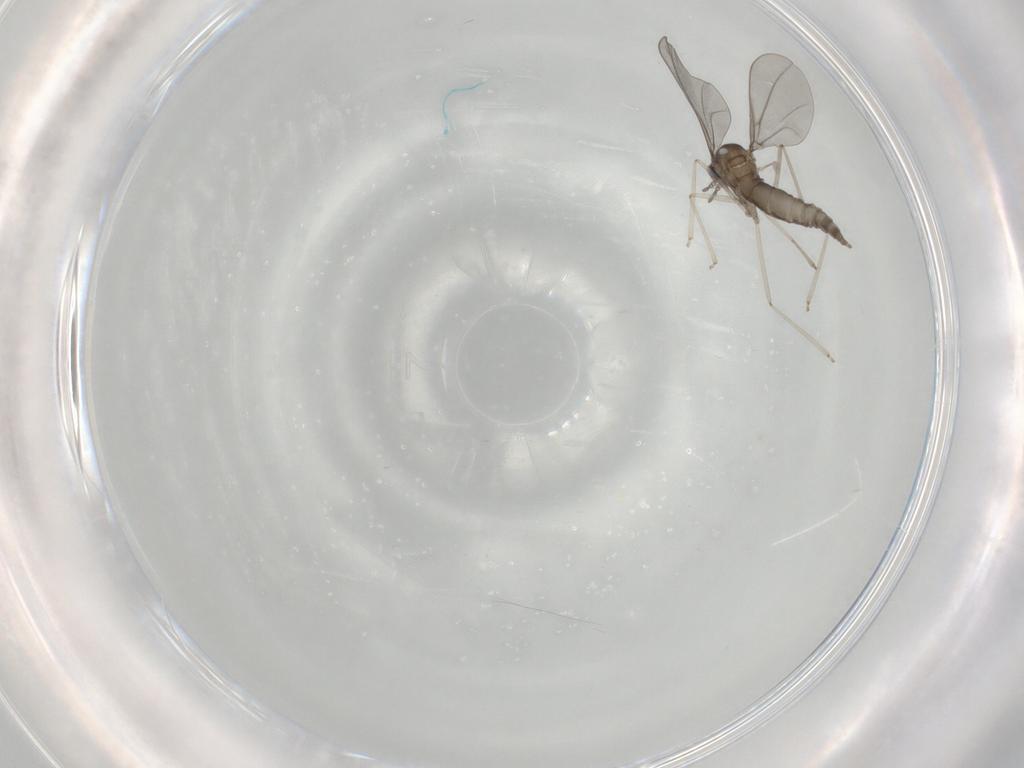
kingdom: Animalia
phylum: Arthropoda
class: Insecta
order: Diptera
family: Cecidomyiidae
